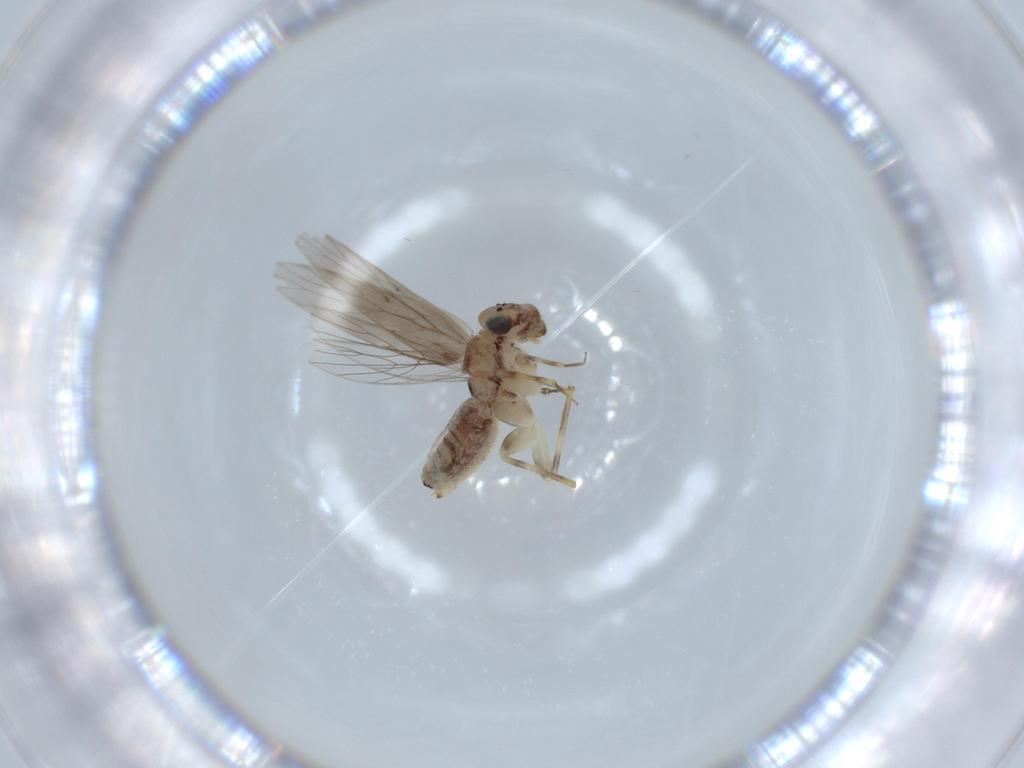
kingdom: Animalia
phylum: Arthropoda
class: Insecta
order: Psocodea
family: Lepidopsocidae
